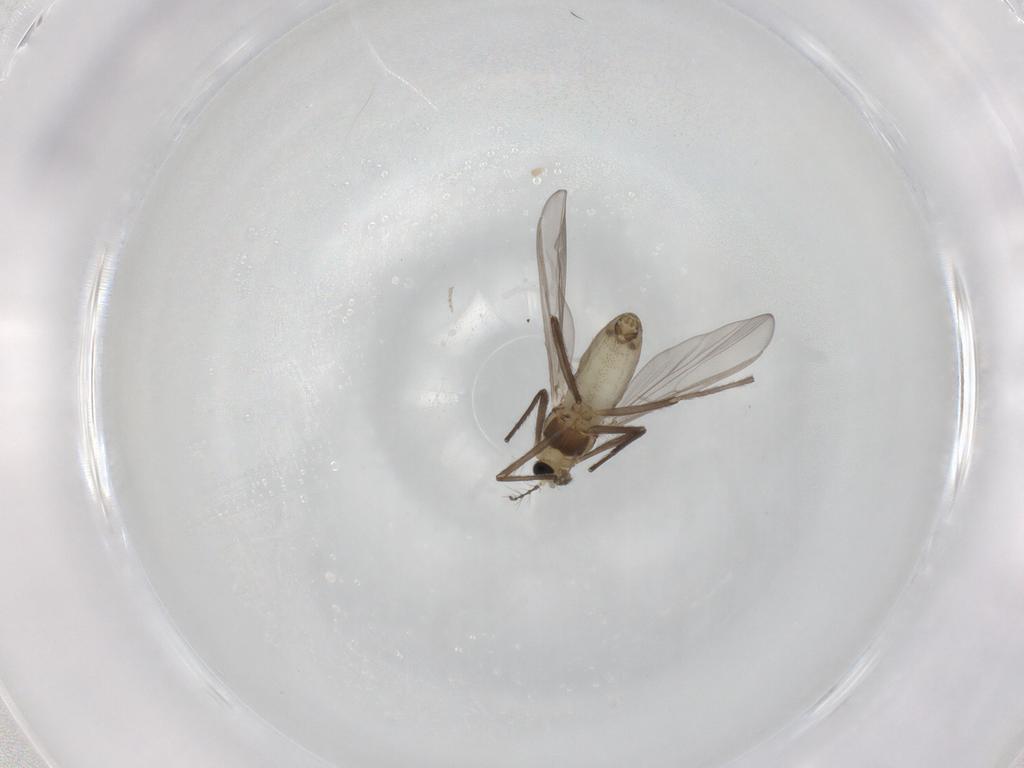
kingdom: Animalia
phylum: Arthropoda
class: Insecta
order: Diptera
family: Chironomidae
